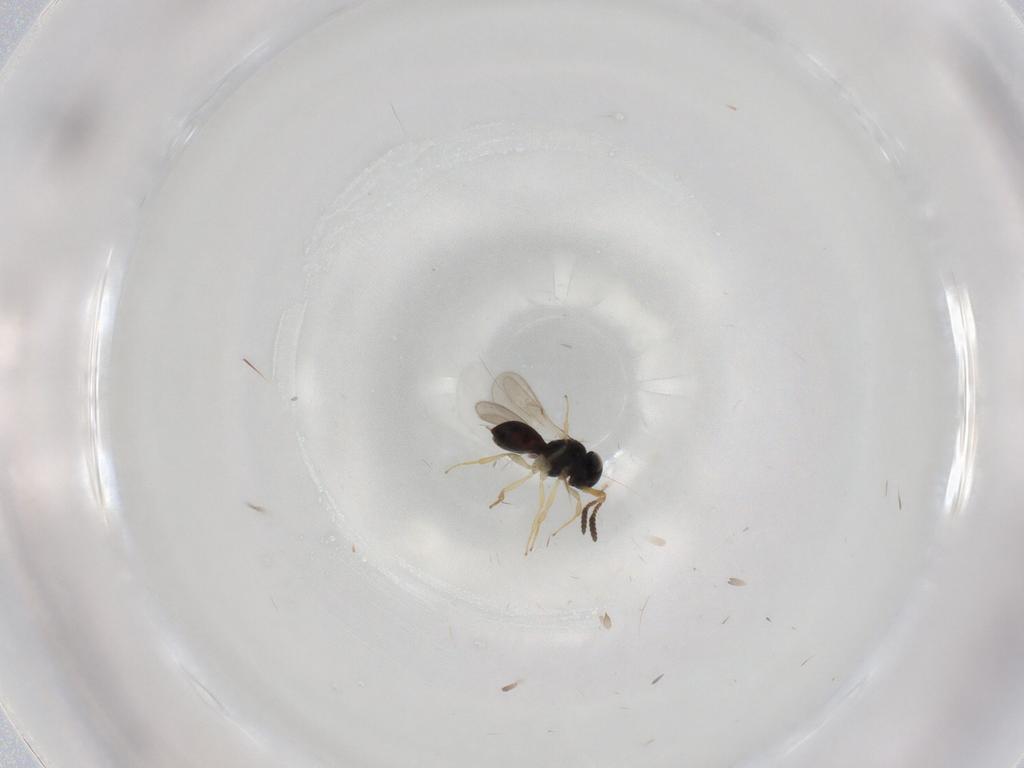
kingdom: Animalia
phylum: Arthropoda
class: Insecta
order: Hymenoptera
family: Scelionidae
